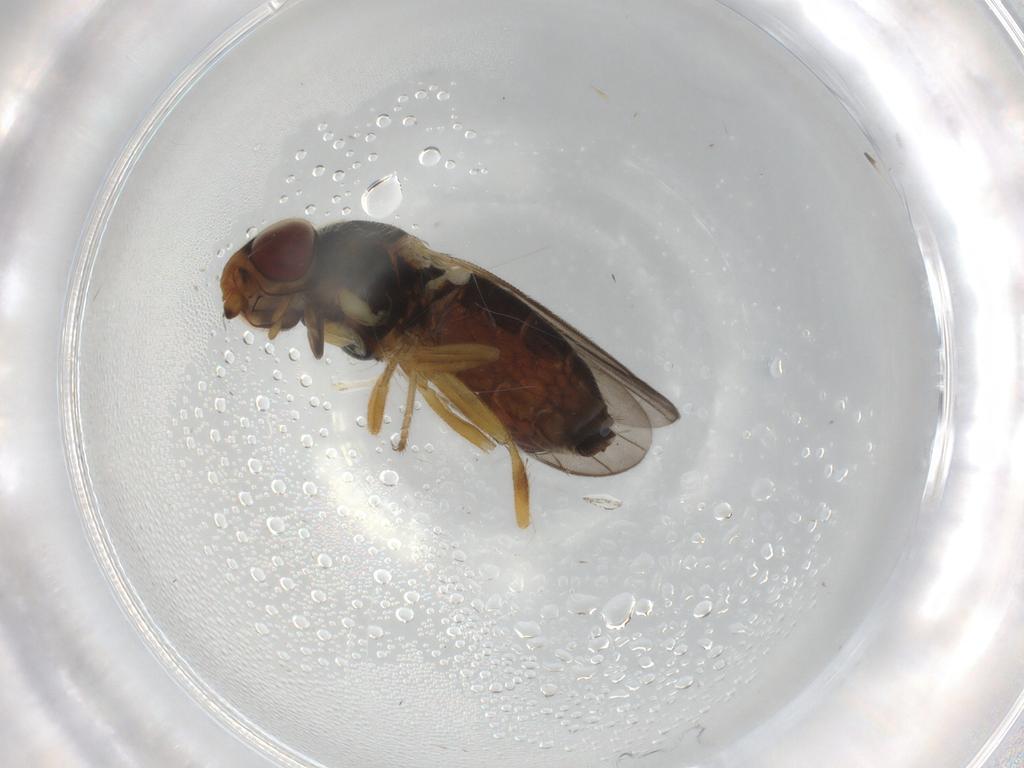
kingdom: Animalia
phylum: Arthropoda
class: Insecta
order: Diptera
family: Chloropidae
